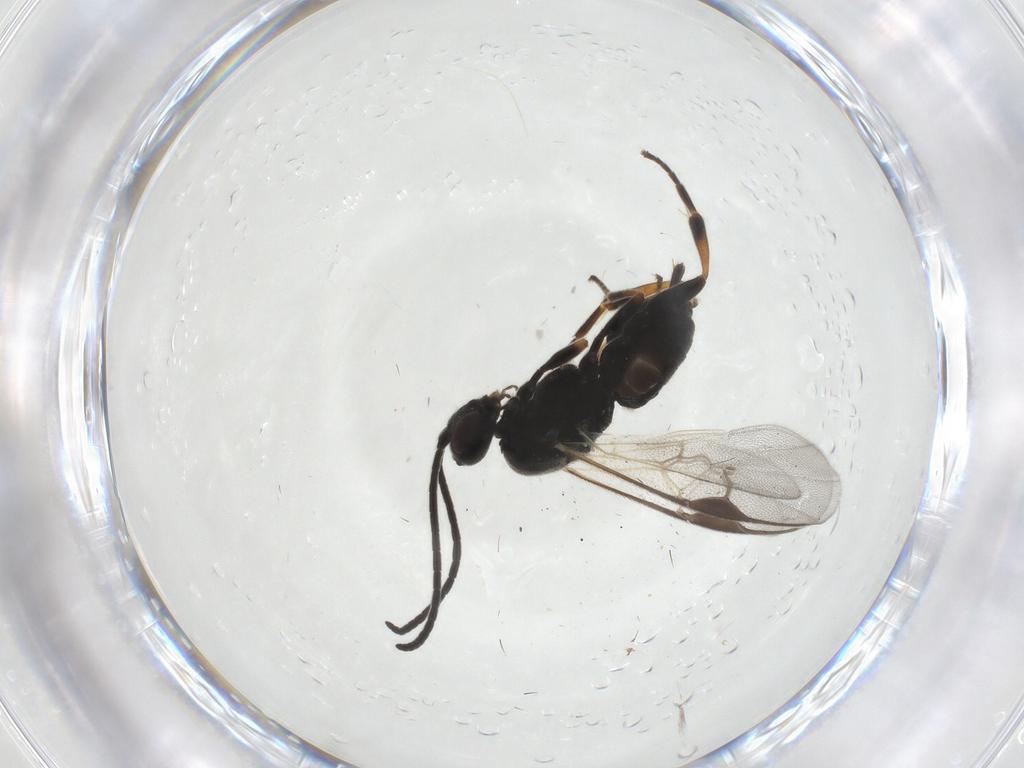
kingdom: Animalia
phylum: Arthropoda
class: Insecta
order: Hymenoptera
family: Braconidae
